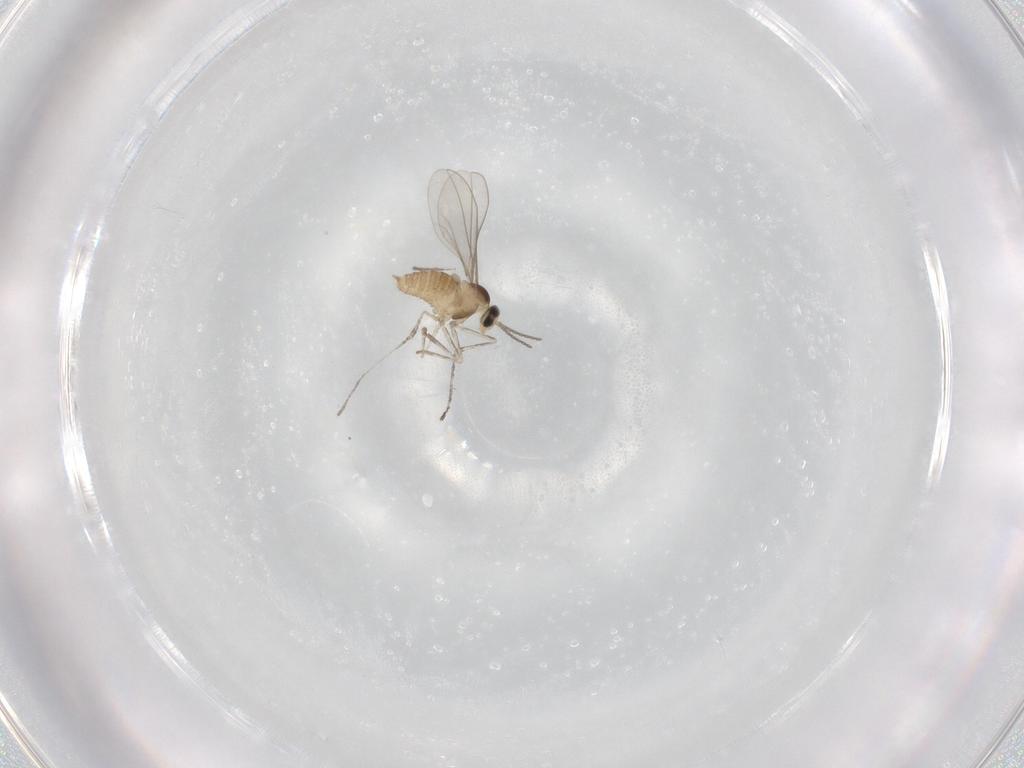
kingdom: Animalia
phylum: Arthropoda
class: Insecta
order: Diptera
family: Cecidomyiidae
